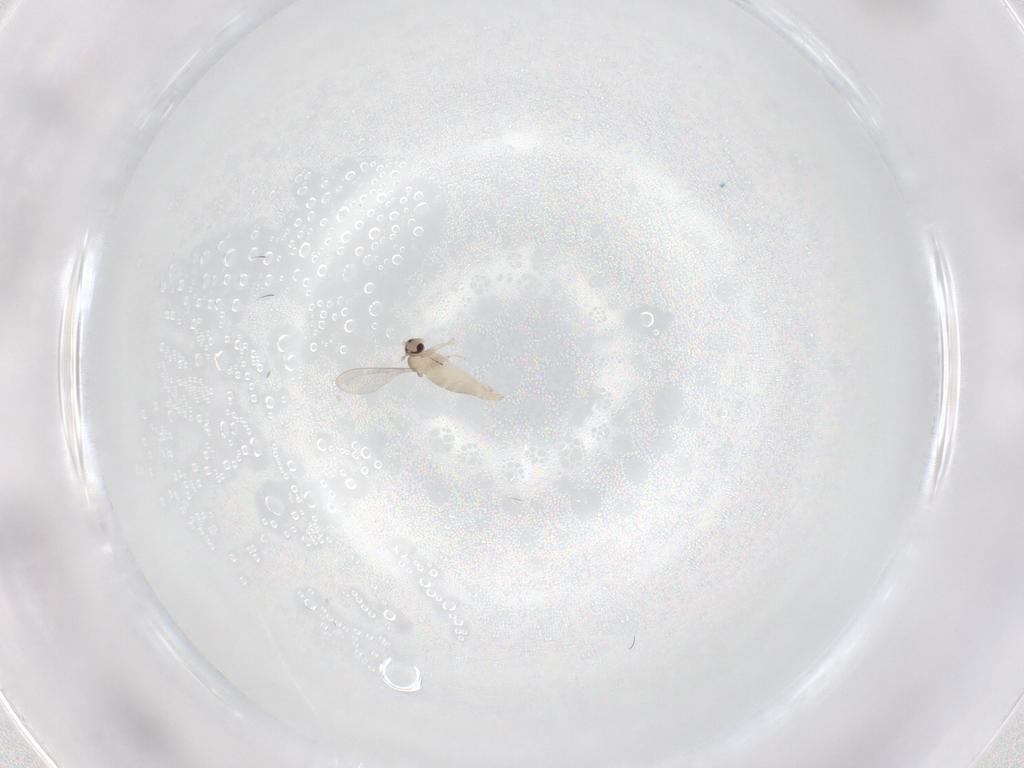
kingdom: Animalia
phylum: Arthropoda
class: Insecta
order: Diptera
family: Cecidomyiidae
